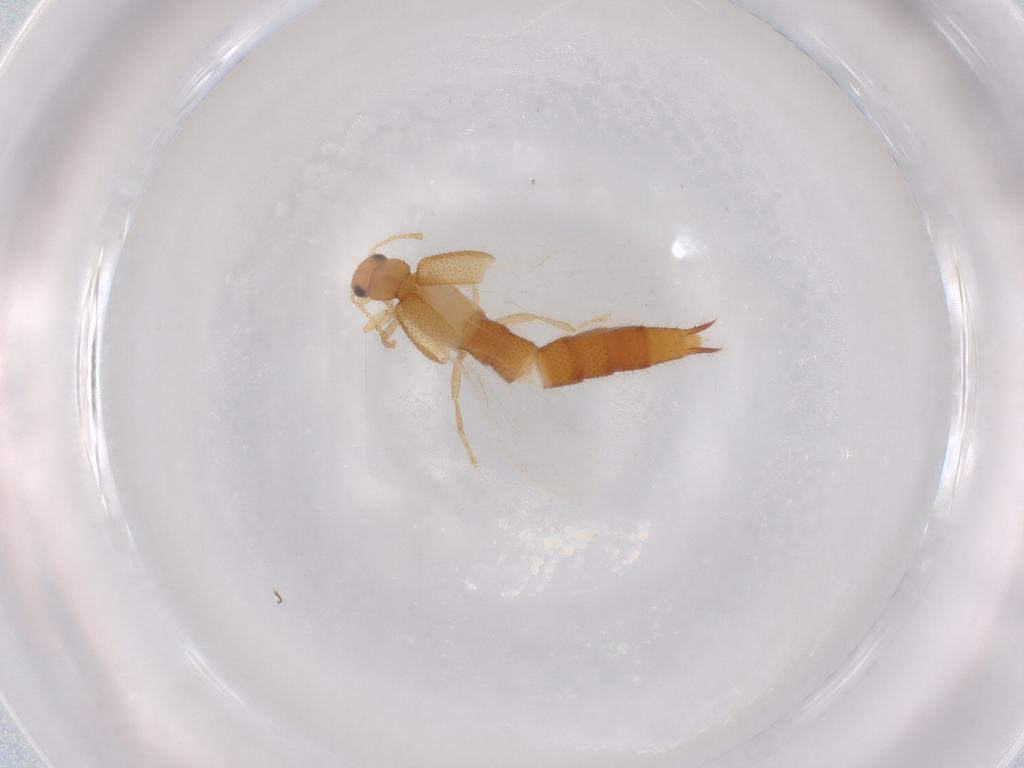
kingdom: Animalia
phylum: Arthropoda
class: Insecta
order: Coleoptera
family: Staphylinidae
